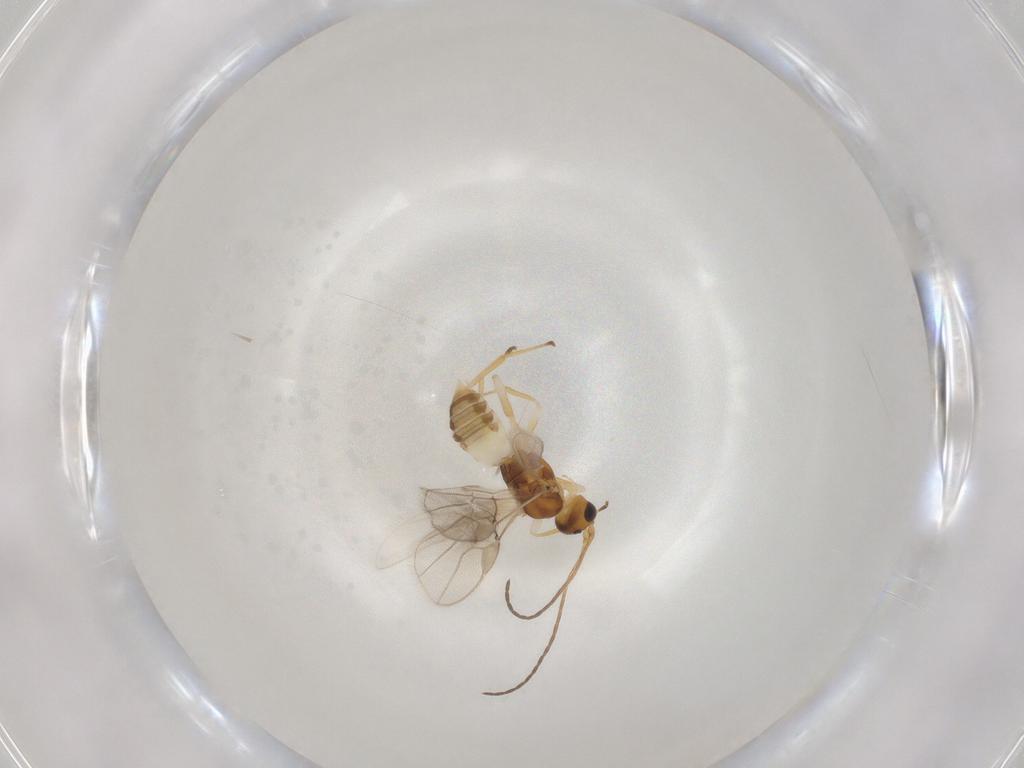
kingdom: Animalia
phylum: Arthropoda
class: Insecta
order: Hymenoptera
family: Braconidae
